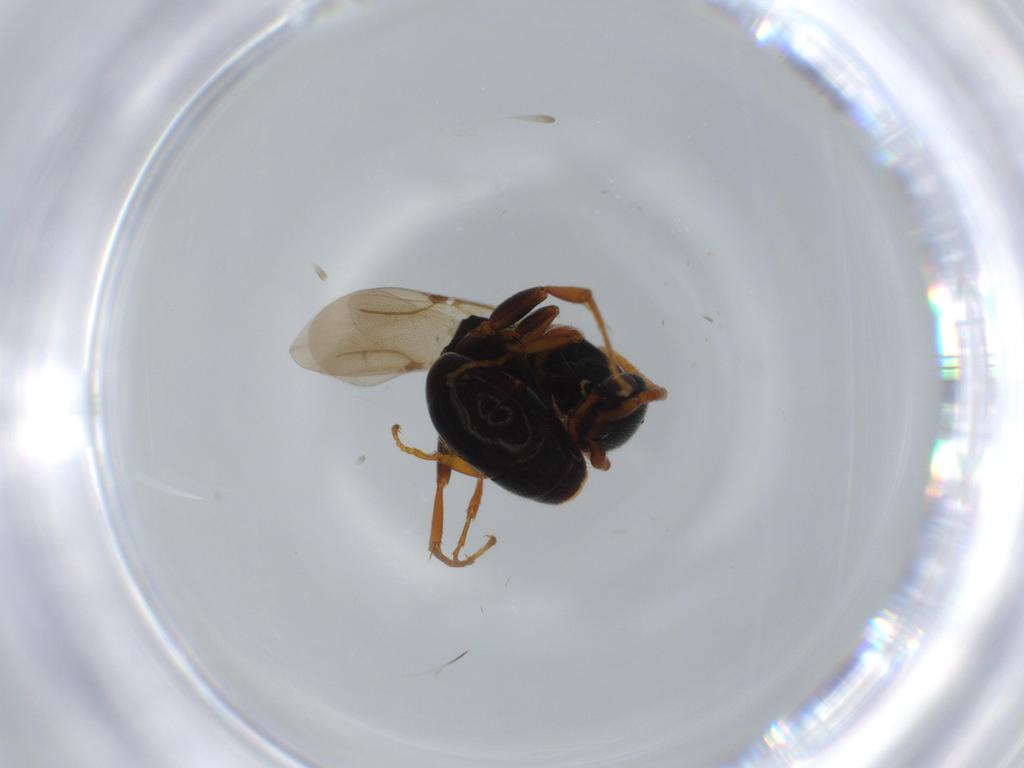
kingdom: Animalia
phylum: Arthropoda
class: Insecta
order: Hymenoptera
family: Bethylidae
